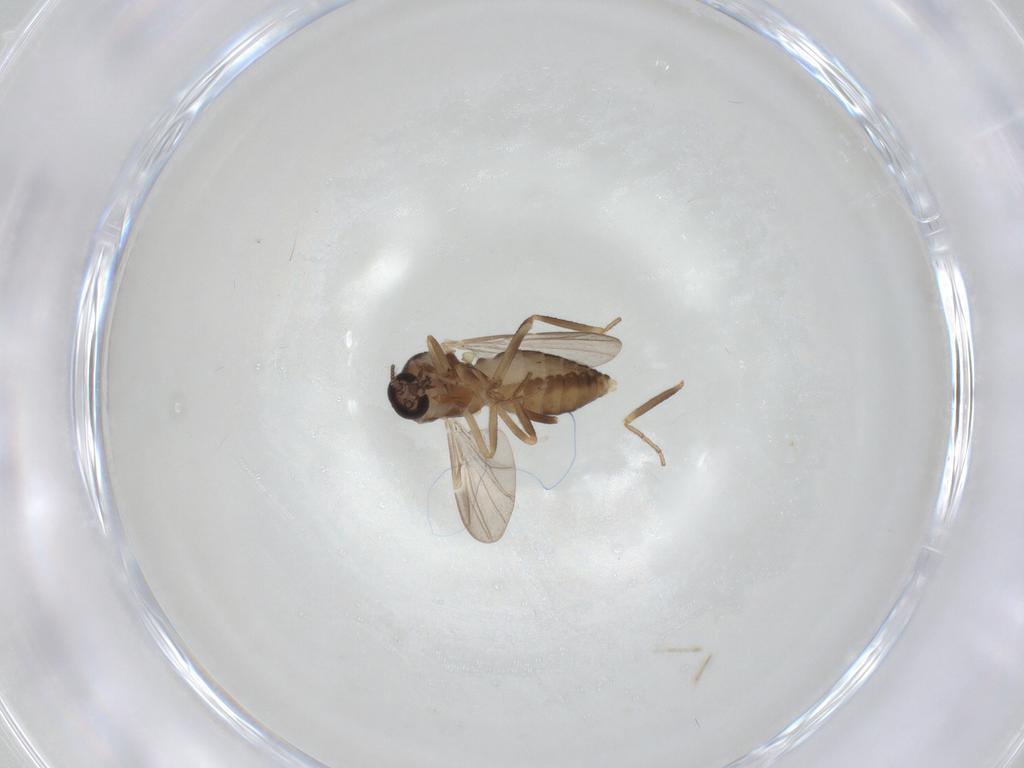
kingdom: Animalia
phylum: Arthropoda
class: Insecta
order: Diptera
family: Ceratopogonidae
